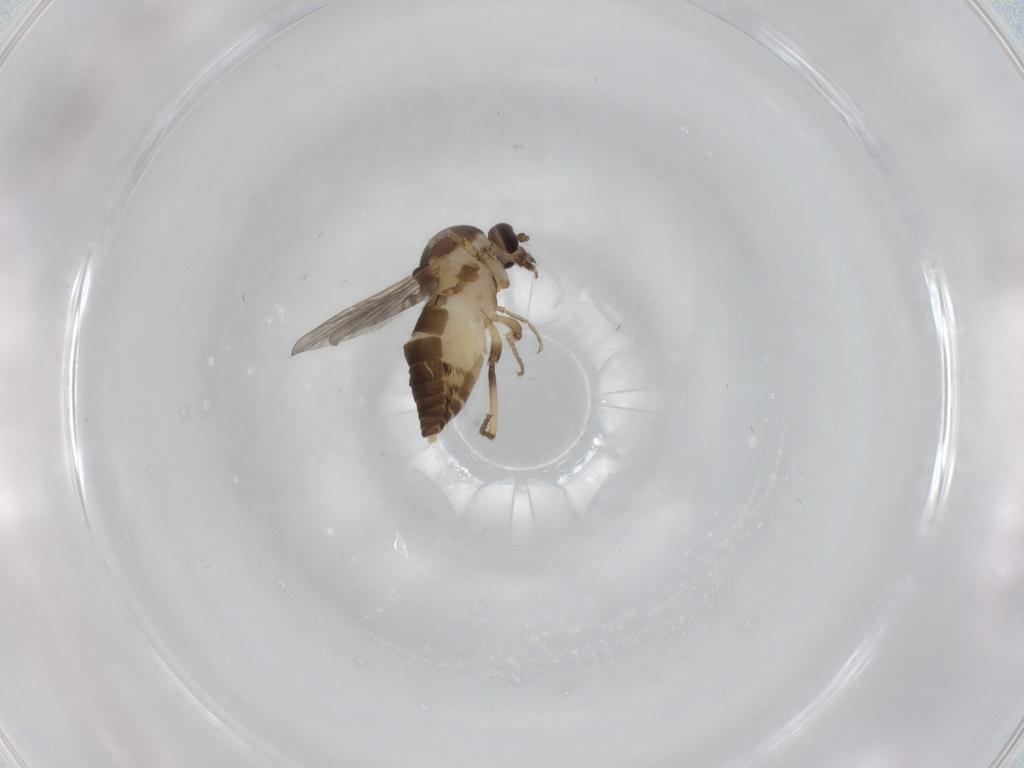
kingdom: Animalia
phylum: Arthropoda
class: Insecta
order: Diptera
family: Ceratopogonidae
